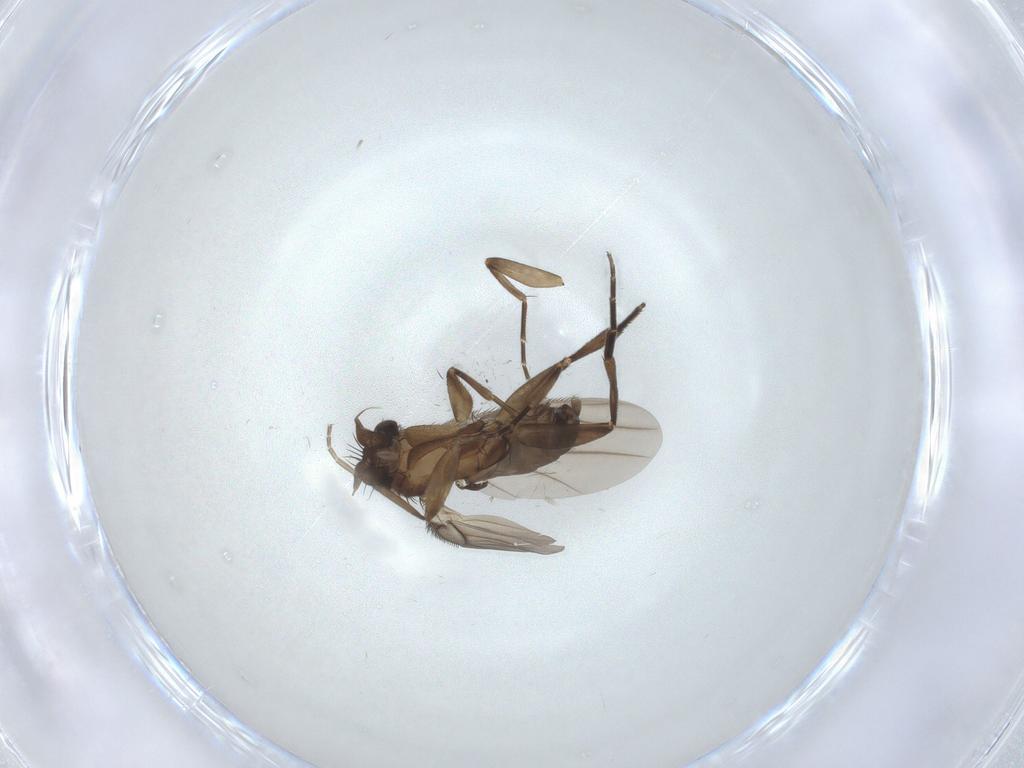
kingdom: Animalia
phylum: Arthropoda
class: Insecta
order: Diptera
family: Phoridae
